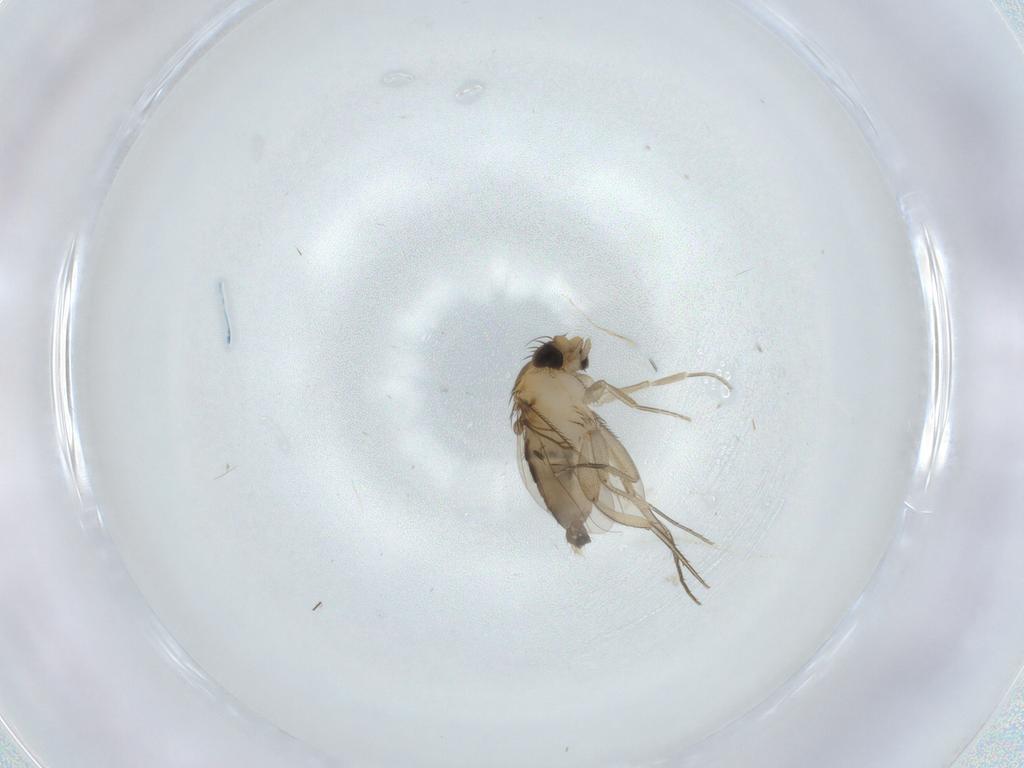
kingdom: Animalia
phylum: Arthropoda
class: Insecta
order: Diptera
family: Phoridae
